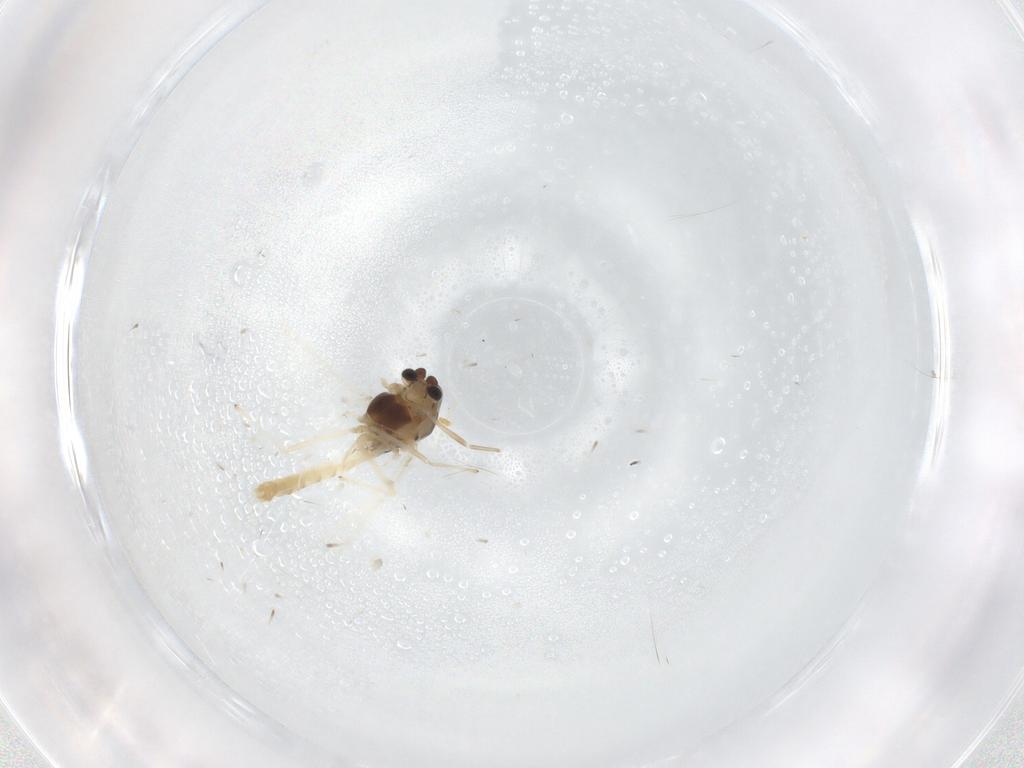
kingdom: Animalia
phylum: Arthropoda
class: Insecta
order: Diptera
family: Chironomidae
